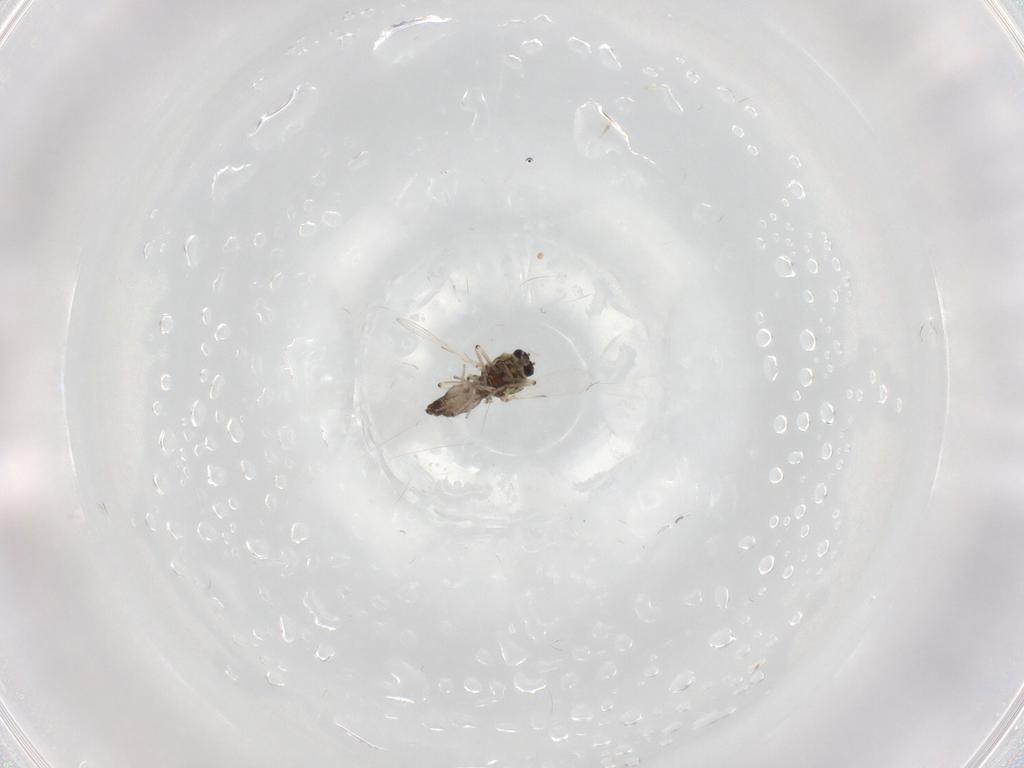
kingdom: Animalia
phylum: Arthropoda
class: Insecta
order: Diptera
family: Ceratopogonidae
